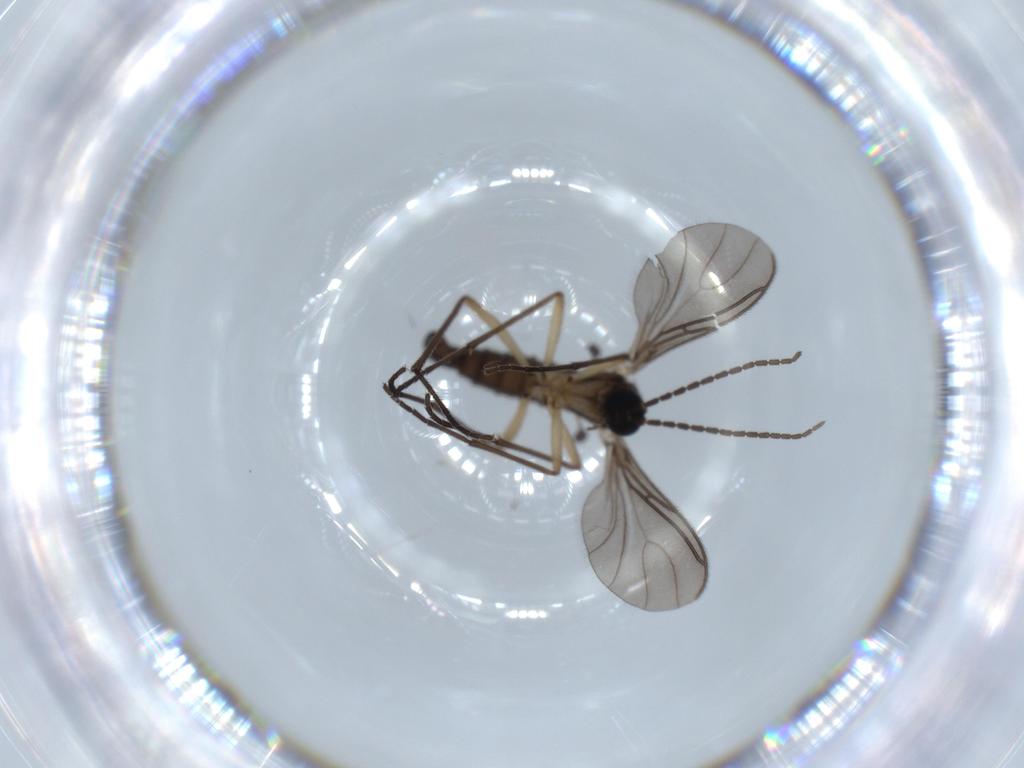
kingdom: Animalia
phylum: Arthropoda
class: Insecta
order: Diptera
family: Sciaridae
